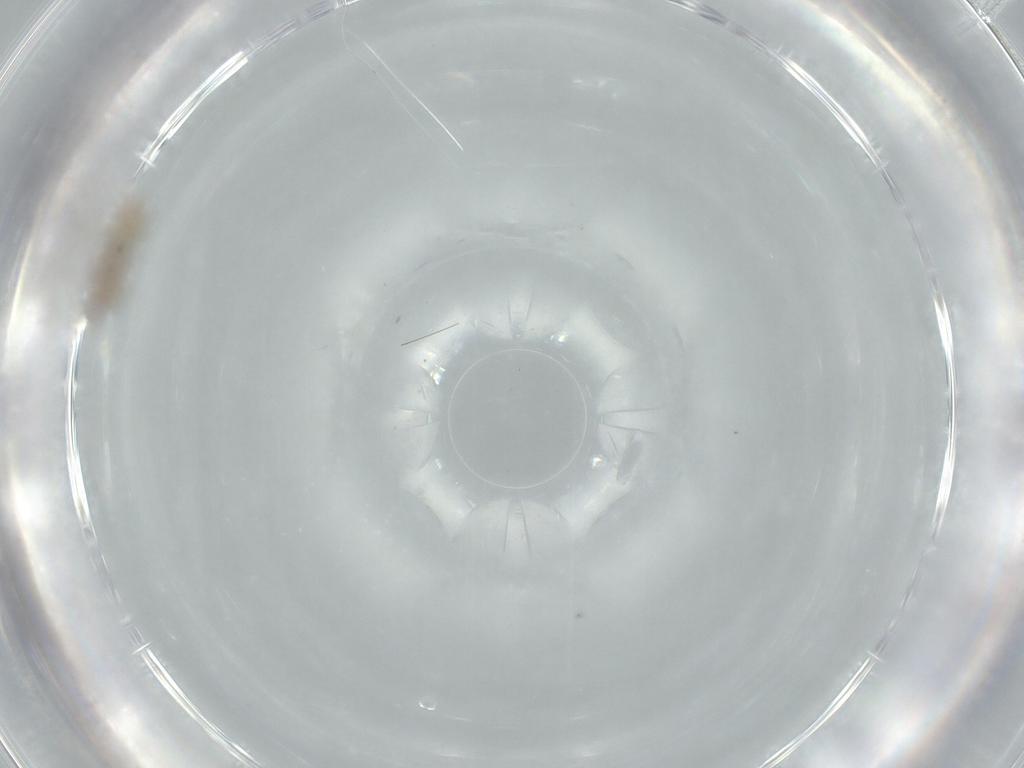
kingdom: Animalia
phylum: Arthropoda
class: Insecta
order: Diptera
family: Cecidomyiidae
